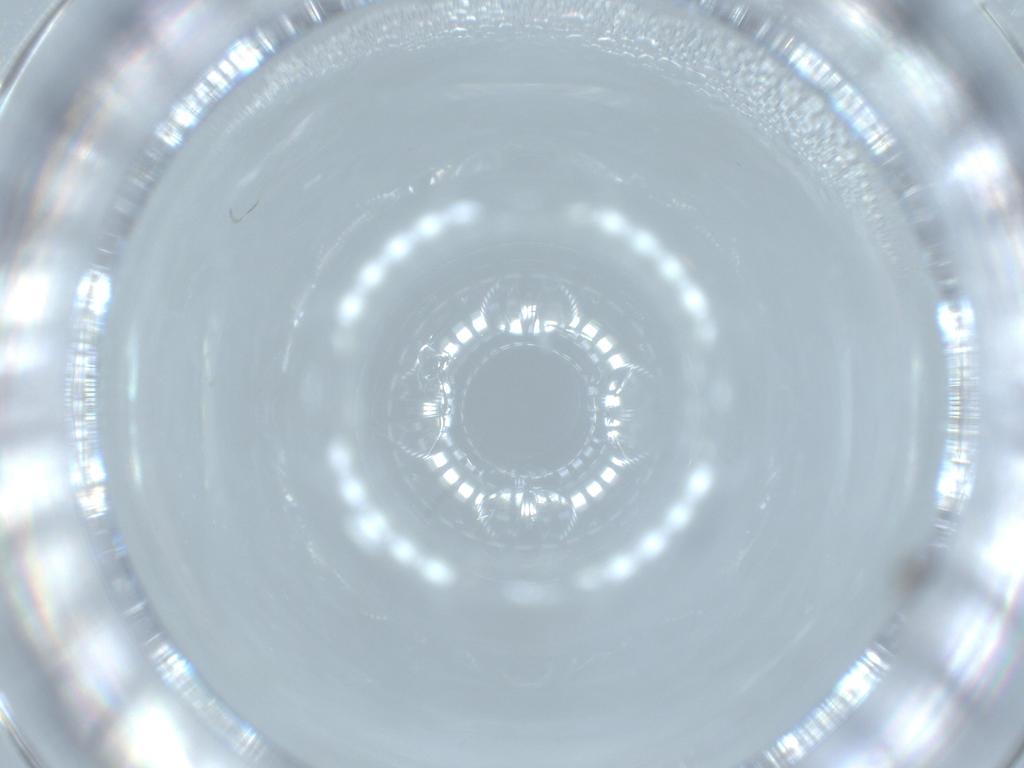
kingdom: Animalia
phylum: Arthropoda
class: Insecta
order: Diptera
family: Cecidomyiidae
